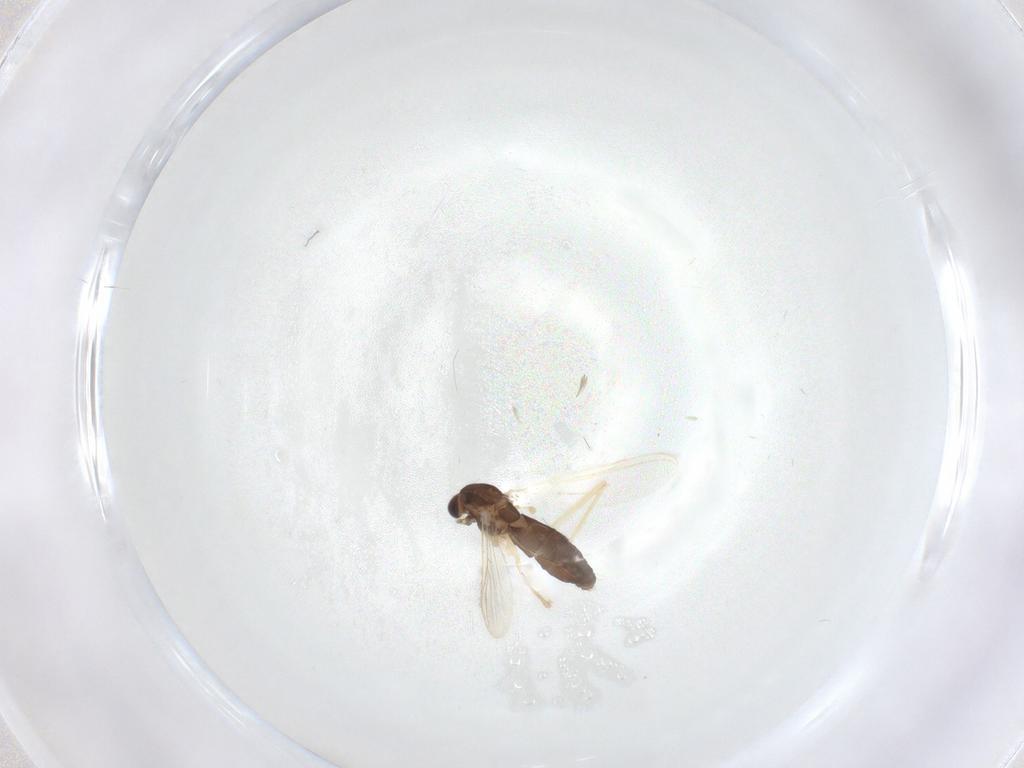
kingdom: Animalia
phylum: Arthropoda
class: Insecta
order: Diptera
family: Chironomidae
